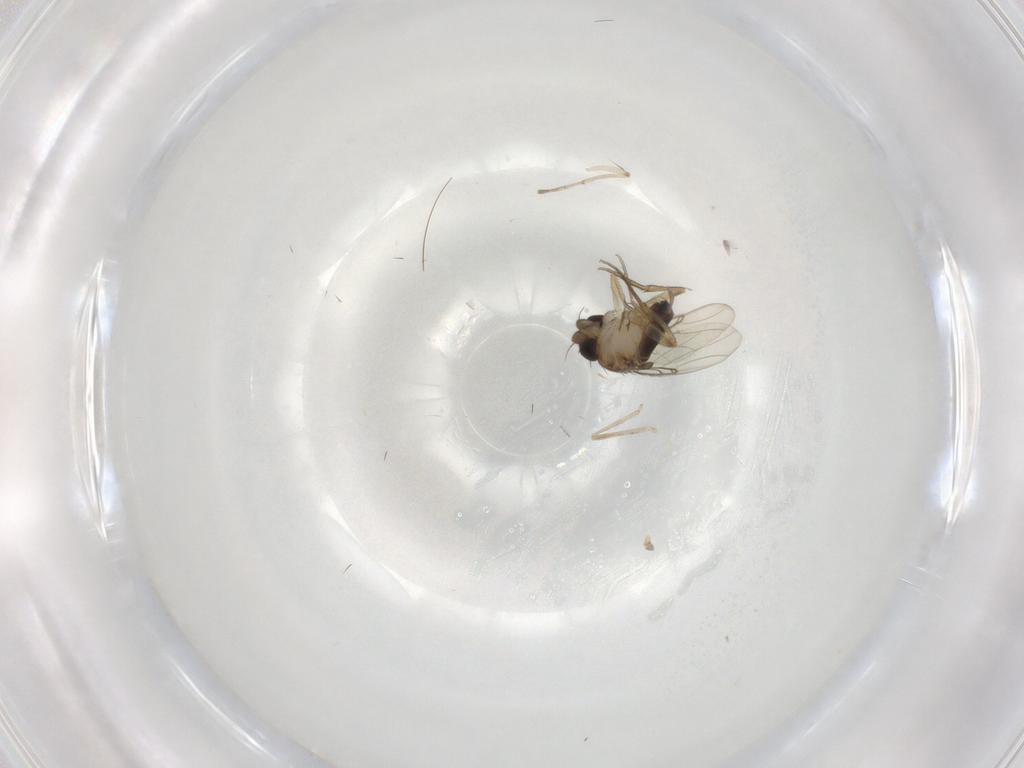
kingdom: Animalia
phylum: Arthropoda
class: Insecta
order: Diptera
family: Cecidomyiidae
